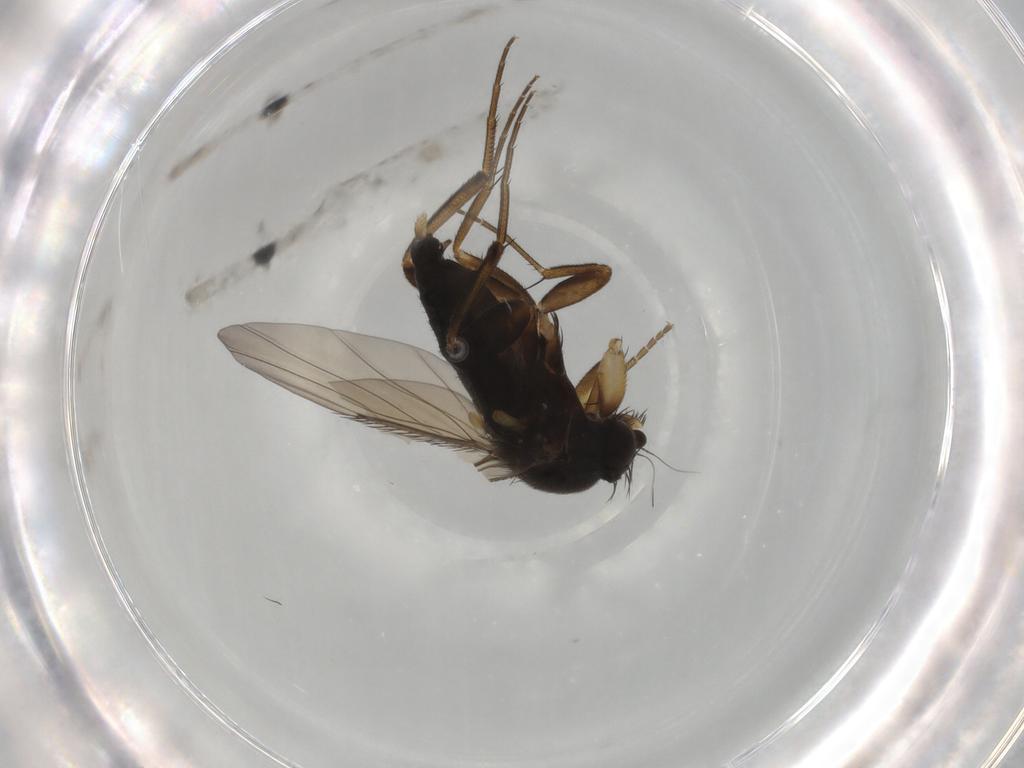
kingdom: Animalia
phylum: Arthropoda
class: Insecta
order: Diptera
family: Phoridae
